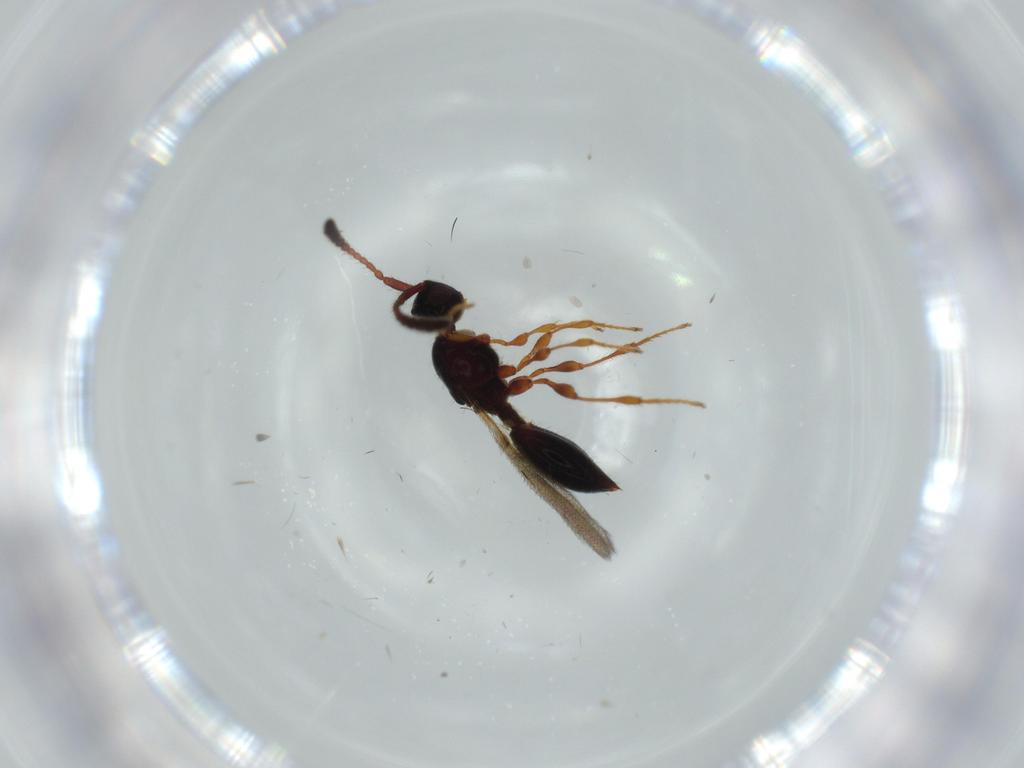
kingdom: Animalia
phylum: Arthropoda
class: Insecta
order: Hymenoptera
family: Diapriidae
